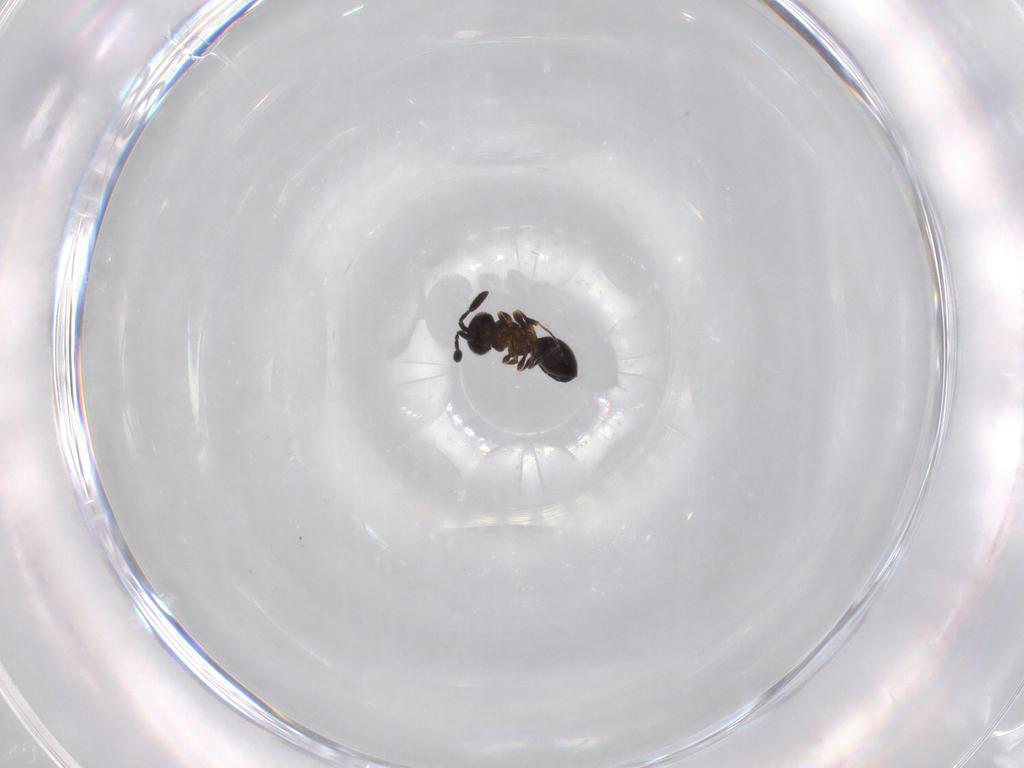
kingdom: Animalia
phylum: Arthropoda
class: Insecta
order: Hymenoptera
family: Scelionidae
